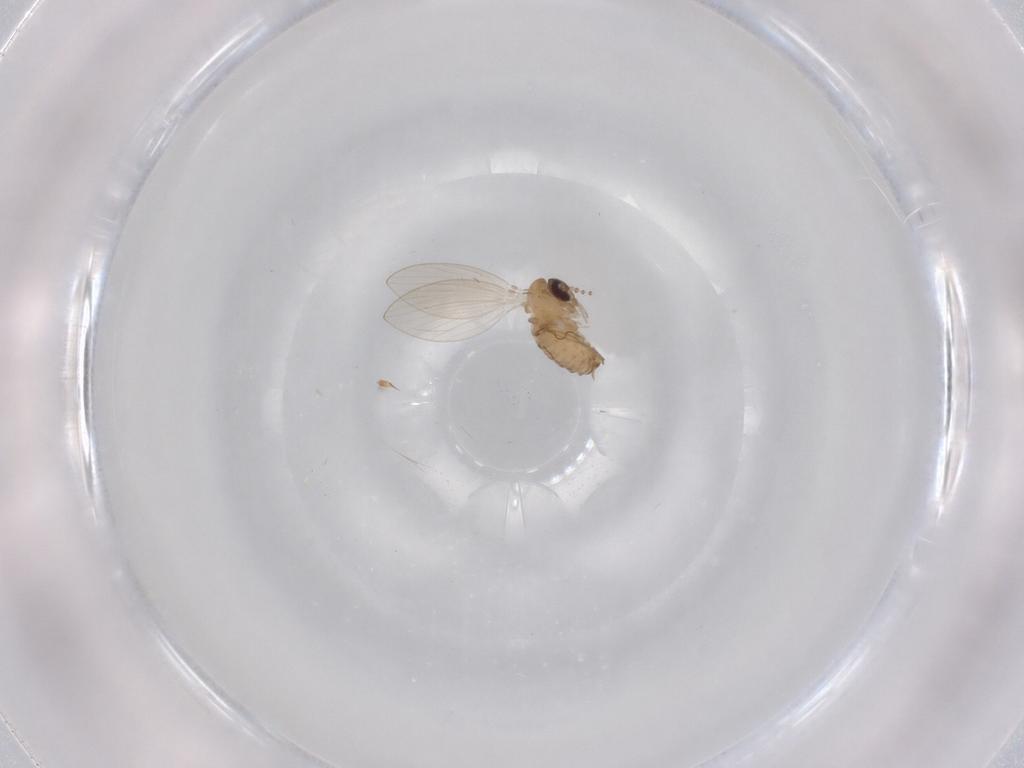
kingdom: Animalia
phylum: Arthropoda
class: Insecta
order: Diptera
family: Psychodidae
